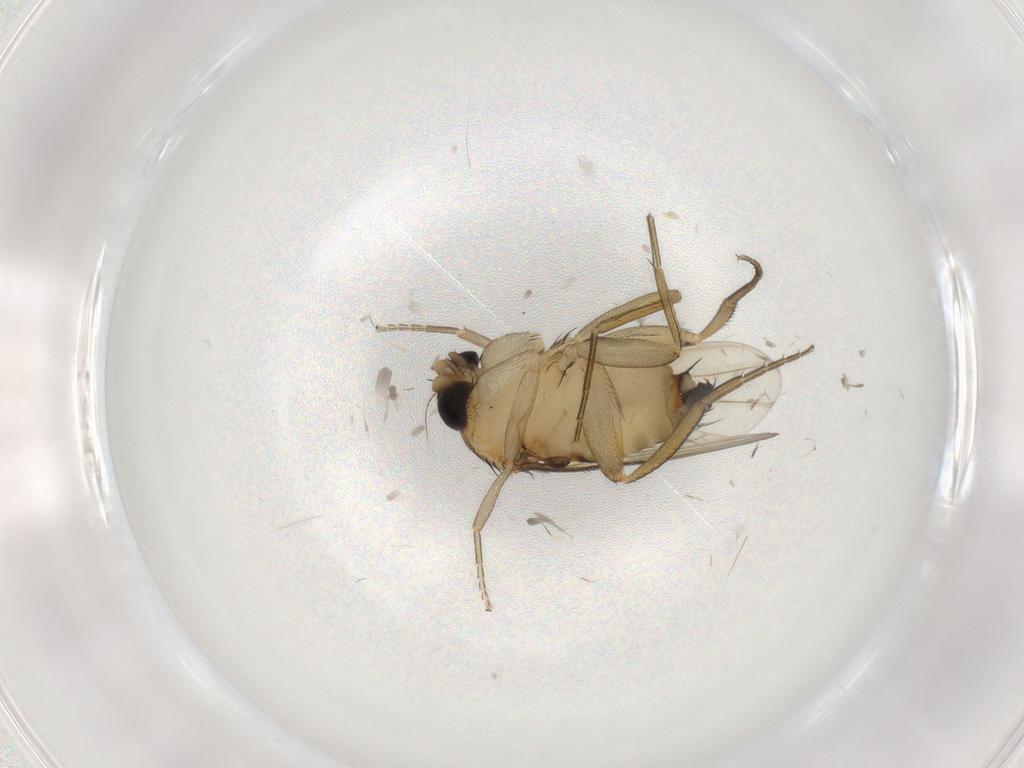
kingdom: Animalia
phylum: Arthropoda
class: Insecta
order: Diptera
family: Phoridae
